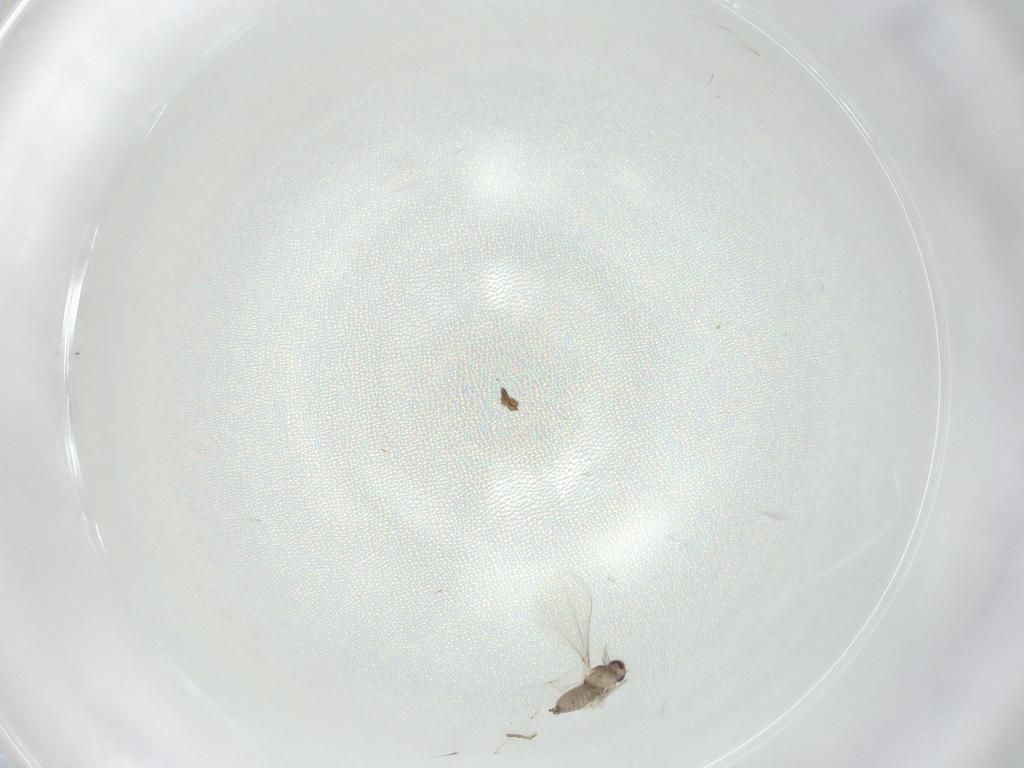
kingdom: Animalia
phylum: Arthropoda
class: Insecta
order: Diptera
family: Cecidomyiidae
